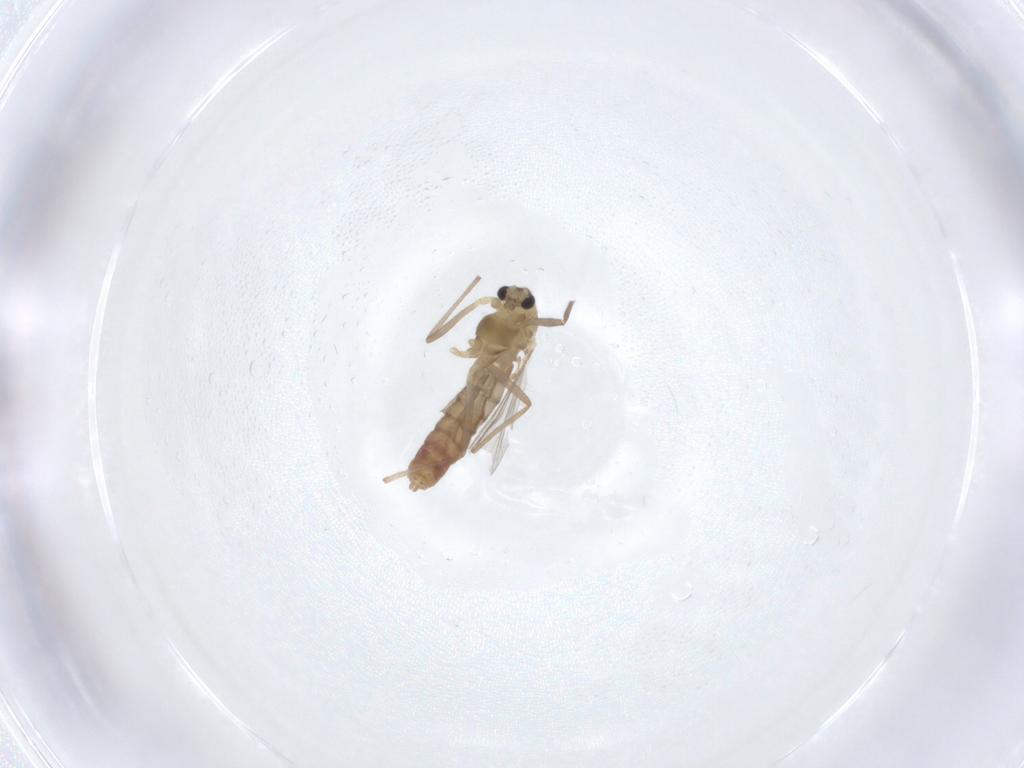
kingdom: Animalia
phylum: Arthropoda
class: Insecta
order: Diptera
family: Chironomidae
